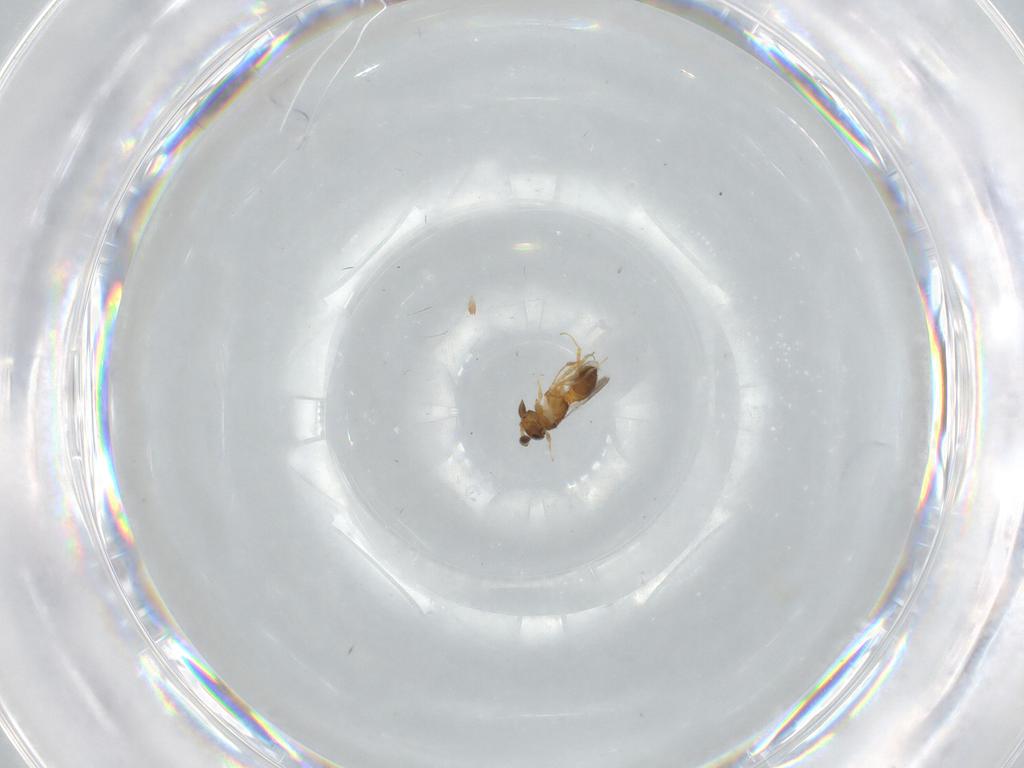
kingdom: Animalia
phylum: Arthropoda
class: Insecta
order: Hymenoptera
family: Scelionidae
